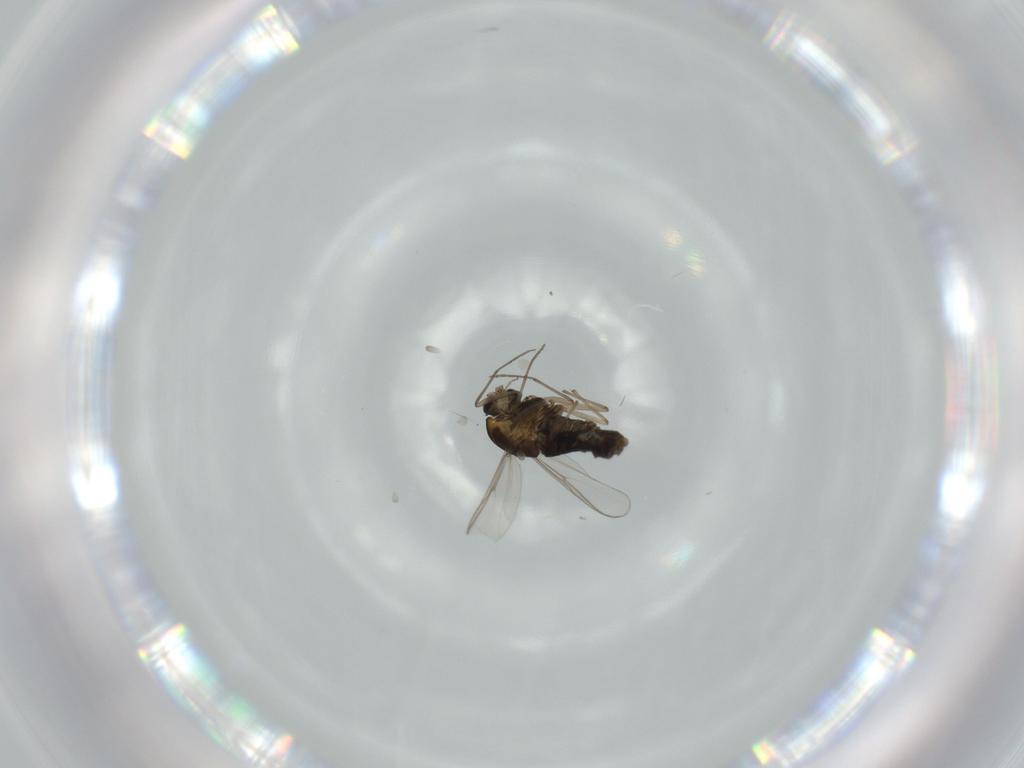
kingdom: Animalia
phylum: Arthropoda
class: Insecta
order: Diptera
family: Chironomidae
